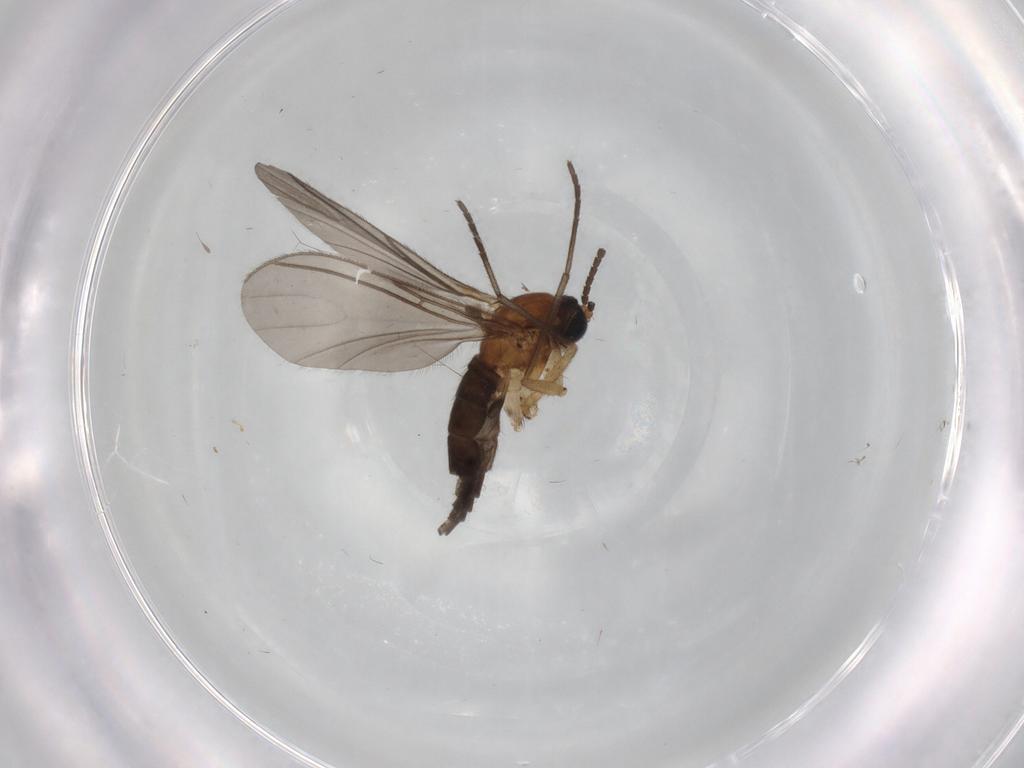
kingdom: Animalia
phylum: Arthropoda
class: Insecta
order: Diptera
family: Sciaridae
